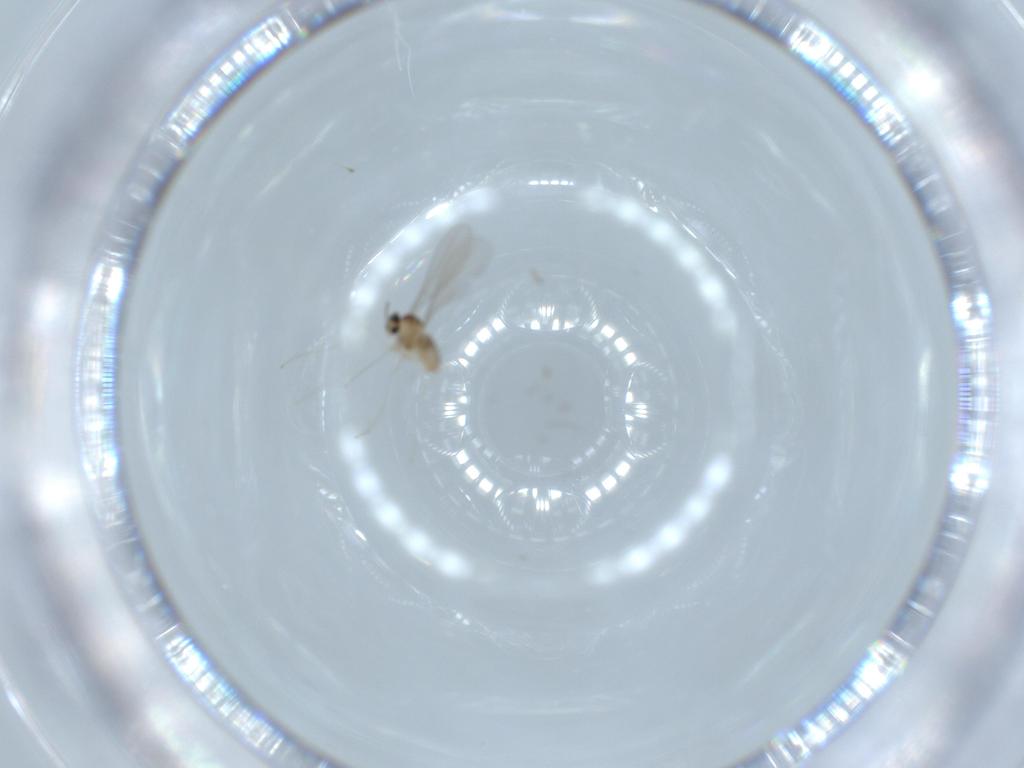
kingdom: Animalia
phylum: Arthropoda
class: Insecta
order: Diptera
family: Cecidomyiidae
